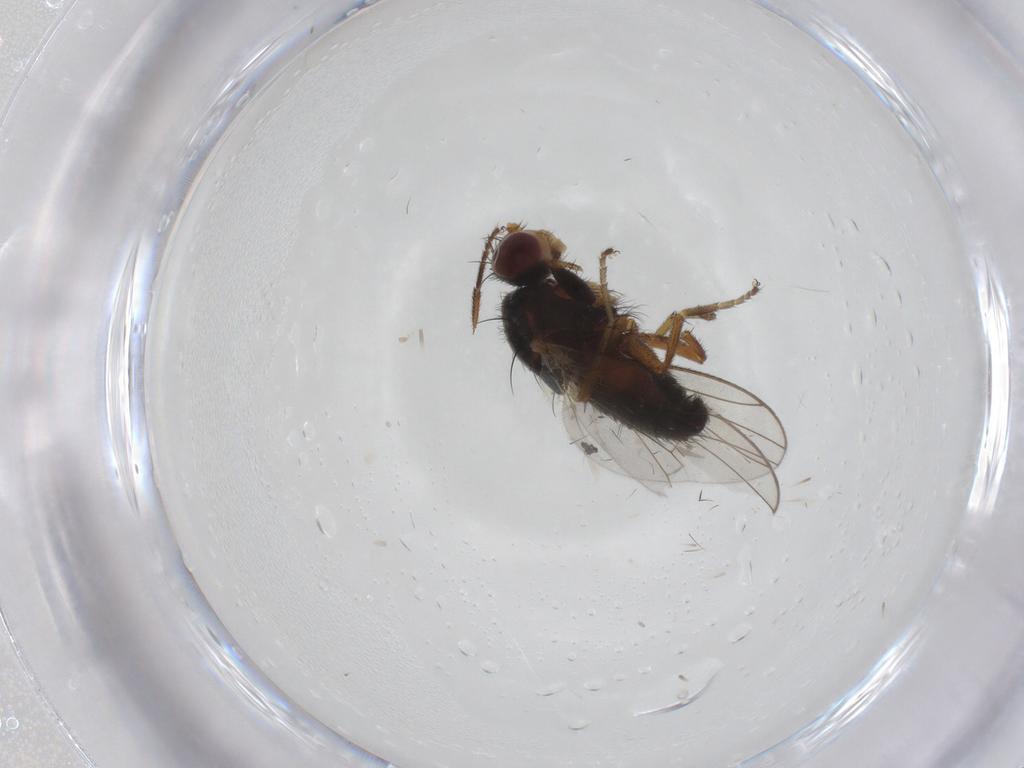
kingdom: Animalia
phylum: Arthropoda
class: Insecta
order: Diptera
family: Heleomyzidae
